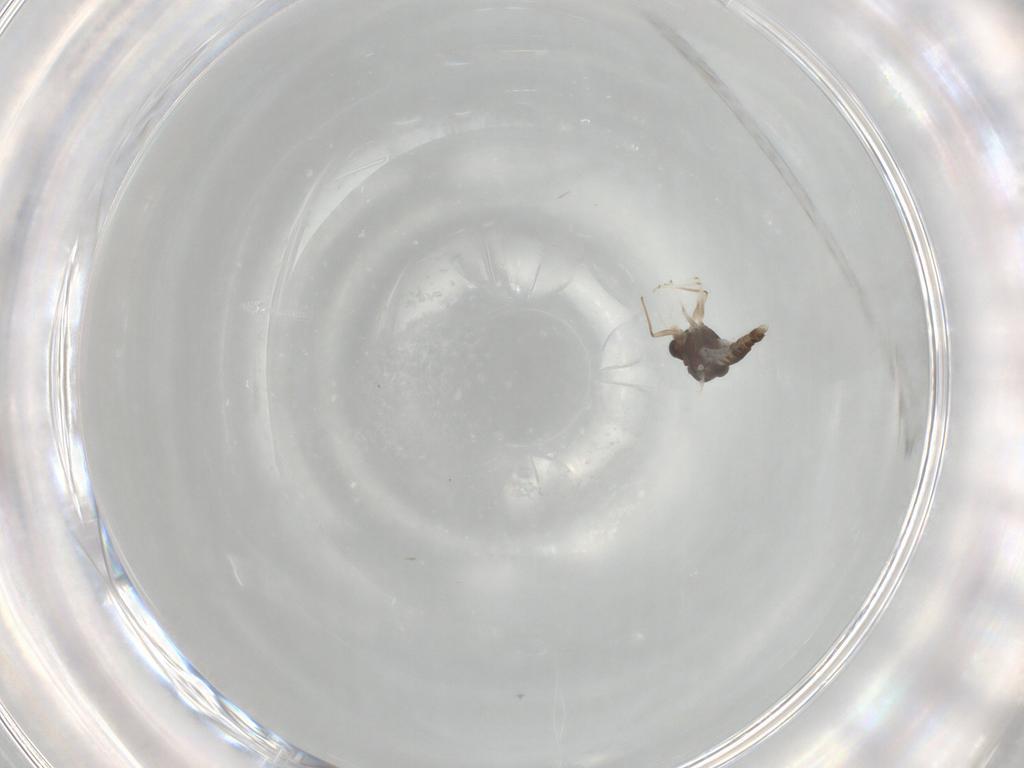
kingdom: Animalia
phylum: Arthropoda
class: Insecta
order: Diptera
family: Chironomidae
